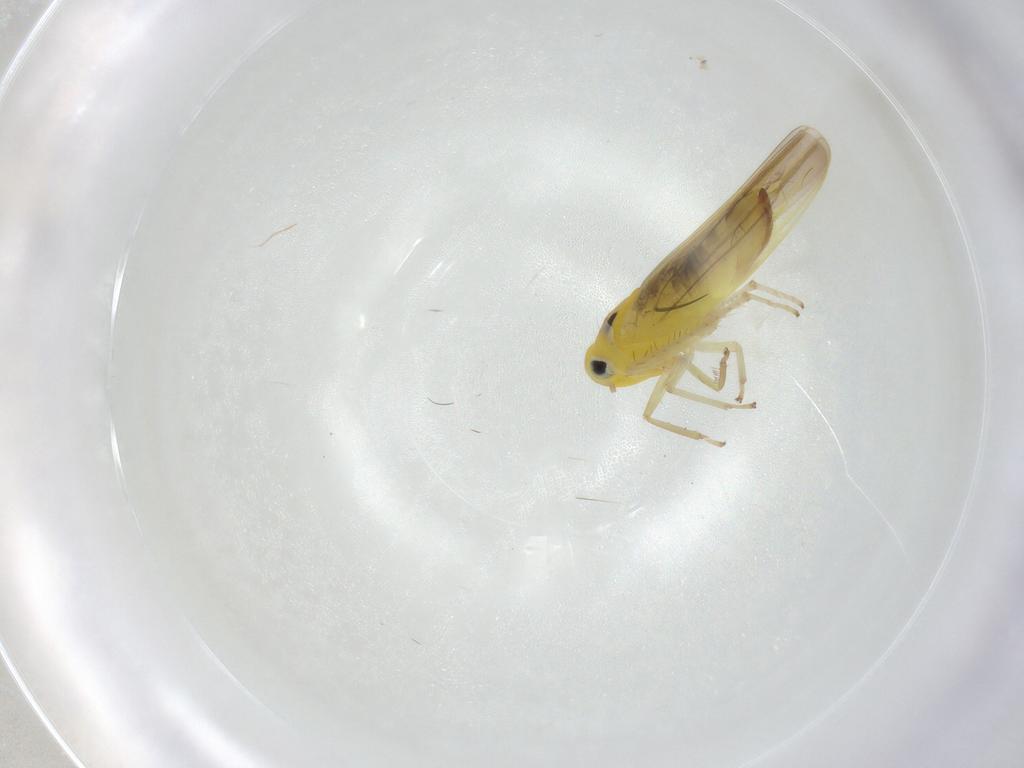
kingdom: Animalia
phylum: Arthropoda
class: Insecta
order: Hemiptera
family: Cicadellidae
